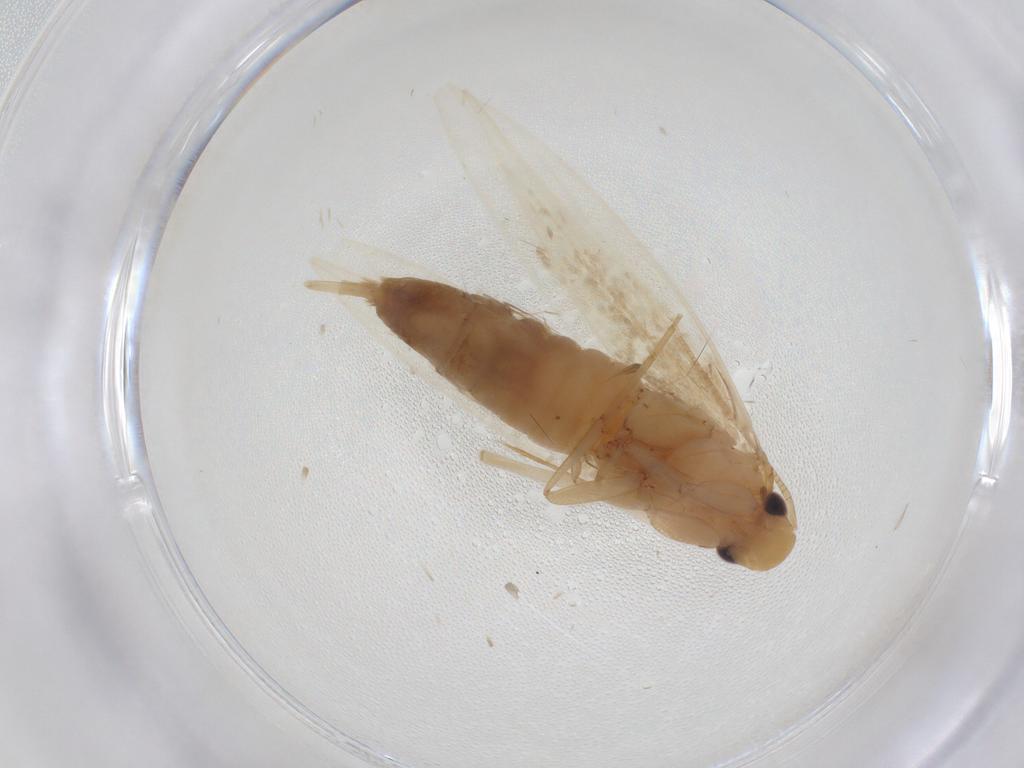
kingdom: Animalia
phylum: Arthropoda
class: Insecta
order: Lepidoptera
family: Tineidae
